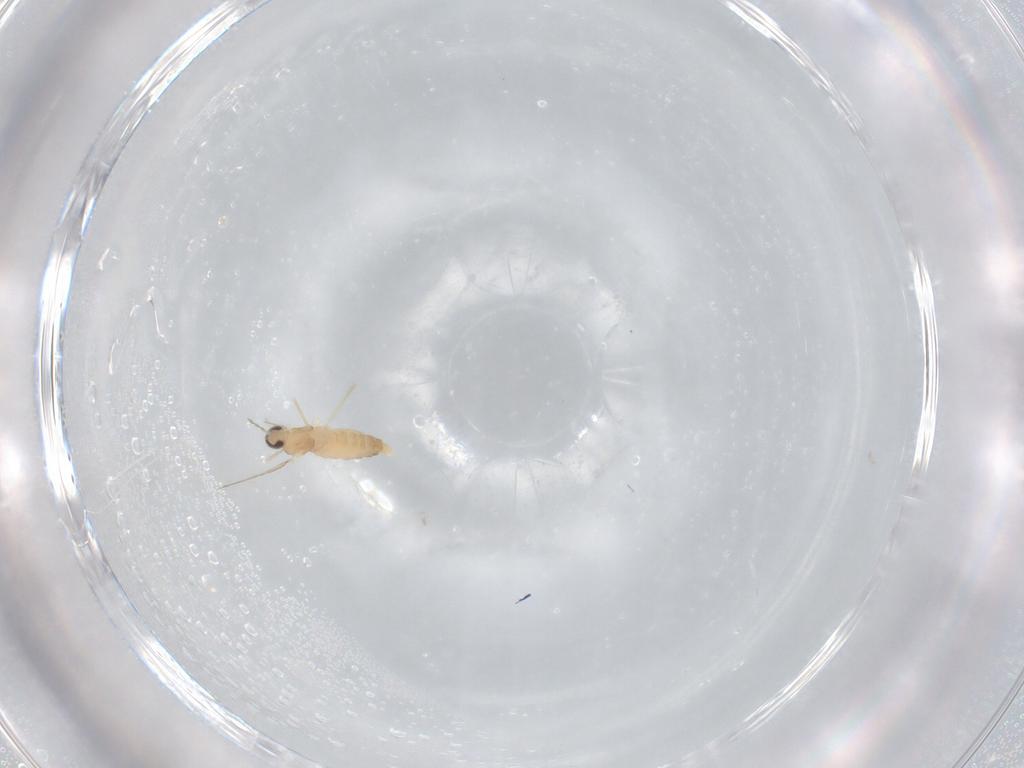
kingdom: Animalia
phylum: Arthropoda
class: Insecta
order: Diptera
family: Cecidomyiidae
